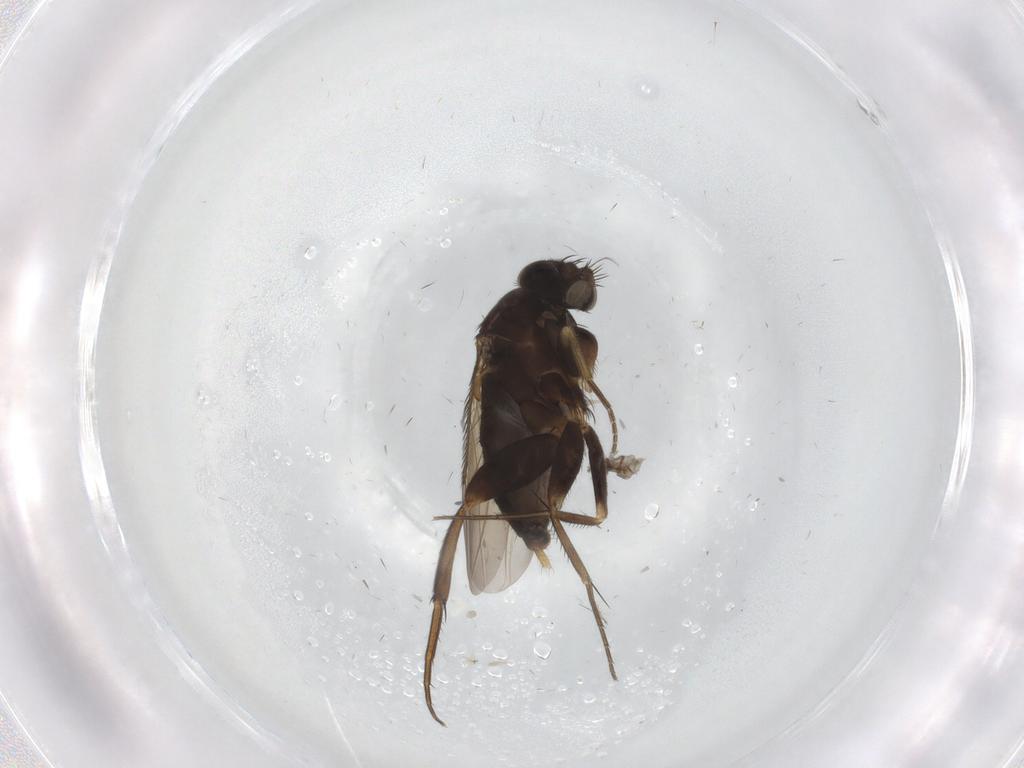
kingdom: Animalia
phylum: Arthropoda
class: Insecta
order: Diptera
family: Phoridae
